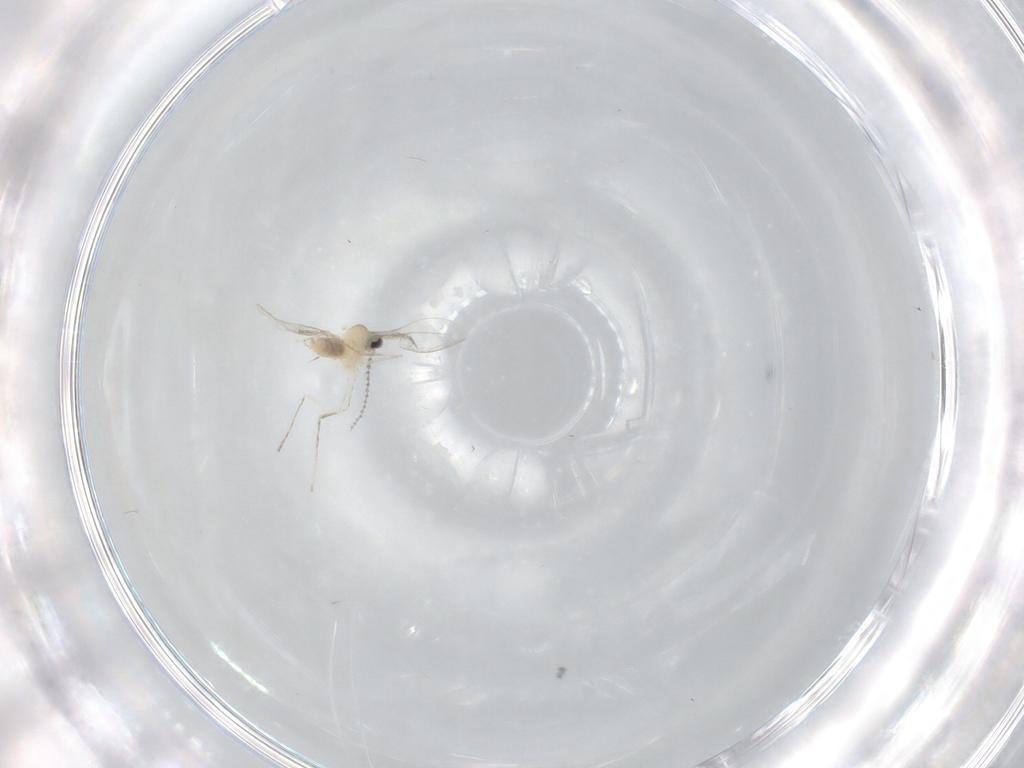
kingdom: Animalia
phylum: Arthropoda
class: Insecta
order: Diptera
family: Cecidomyiidae
